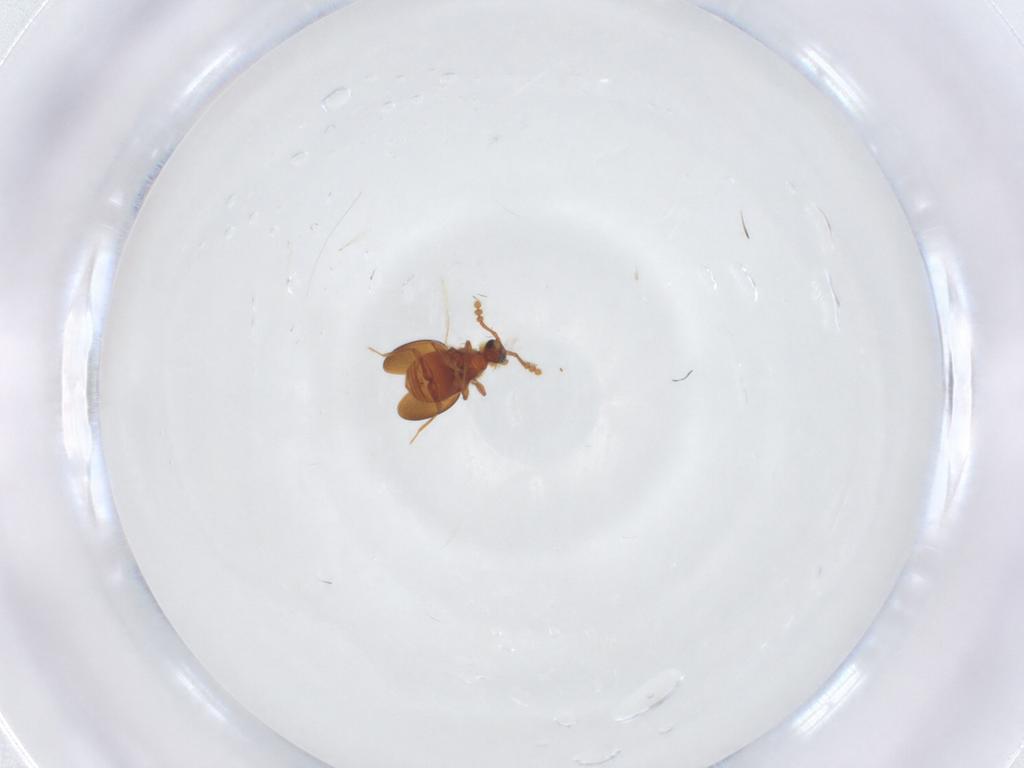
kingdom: Animalia
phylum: Arthropoda
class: Insecta
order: Coleoptera
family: Staphylinidae
